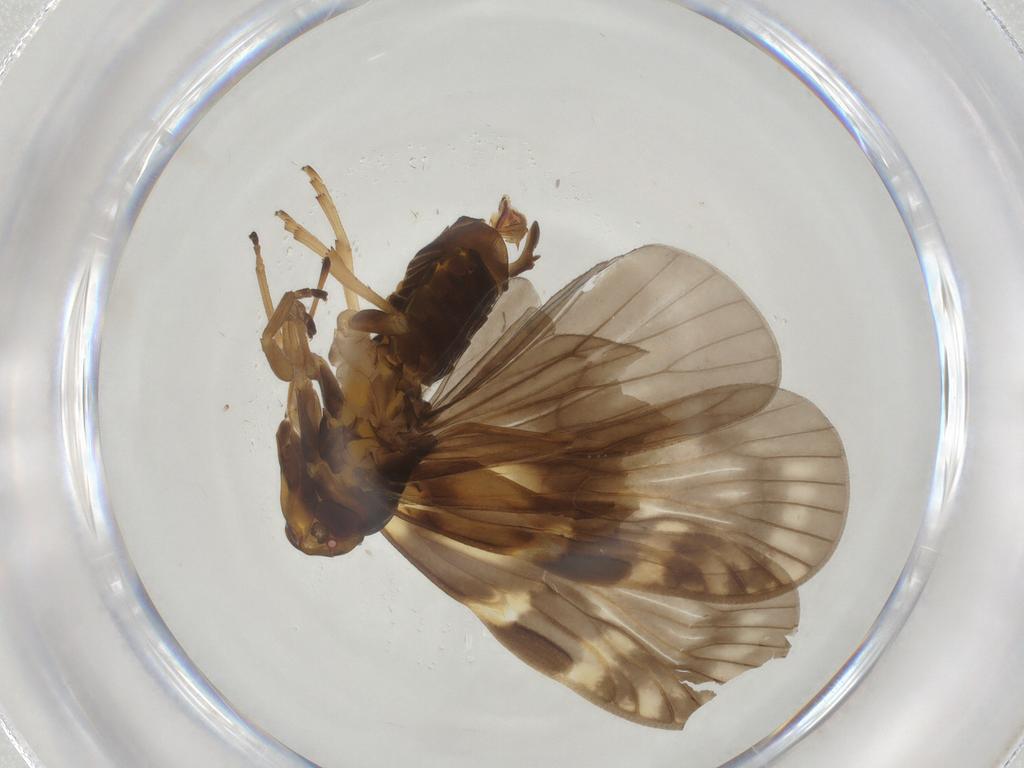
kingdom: Animalia
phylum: Arthropoda
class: Insecta
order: Hemiptera
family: Cixiidae
